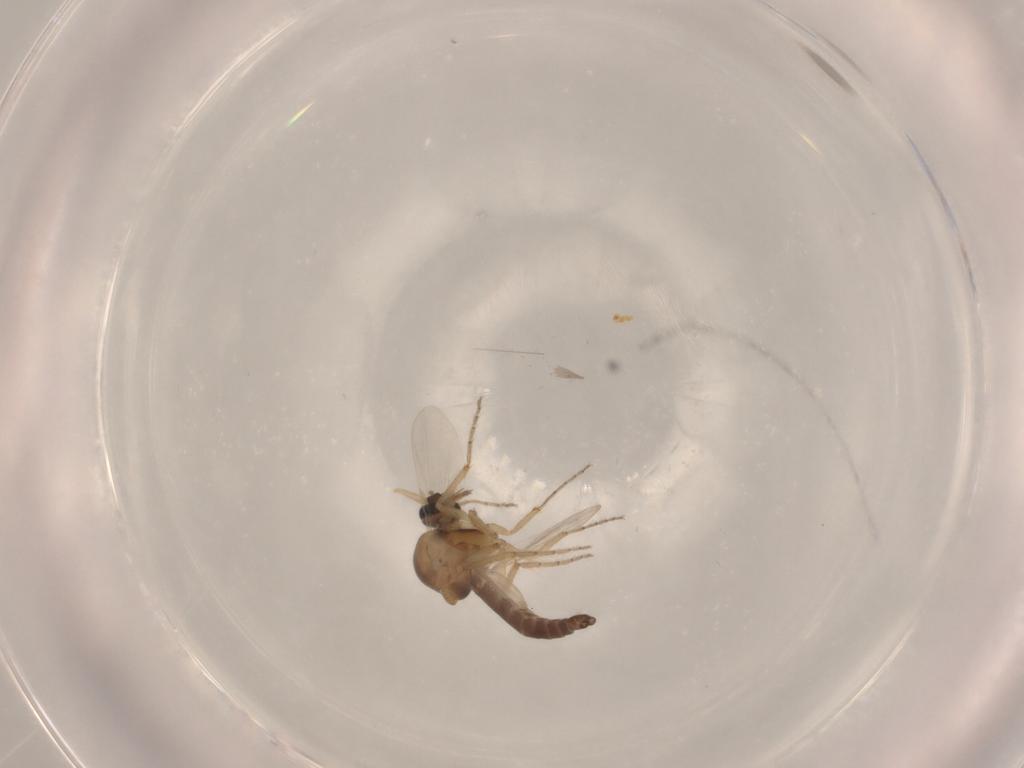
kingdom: Animalia
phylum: Arthropoda
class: Insecta
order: Diptera
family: Ceratopogonidae
